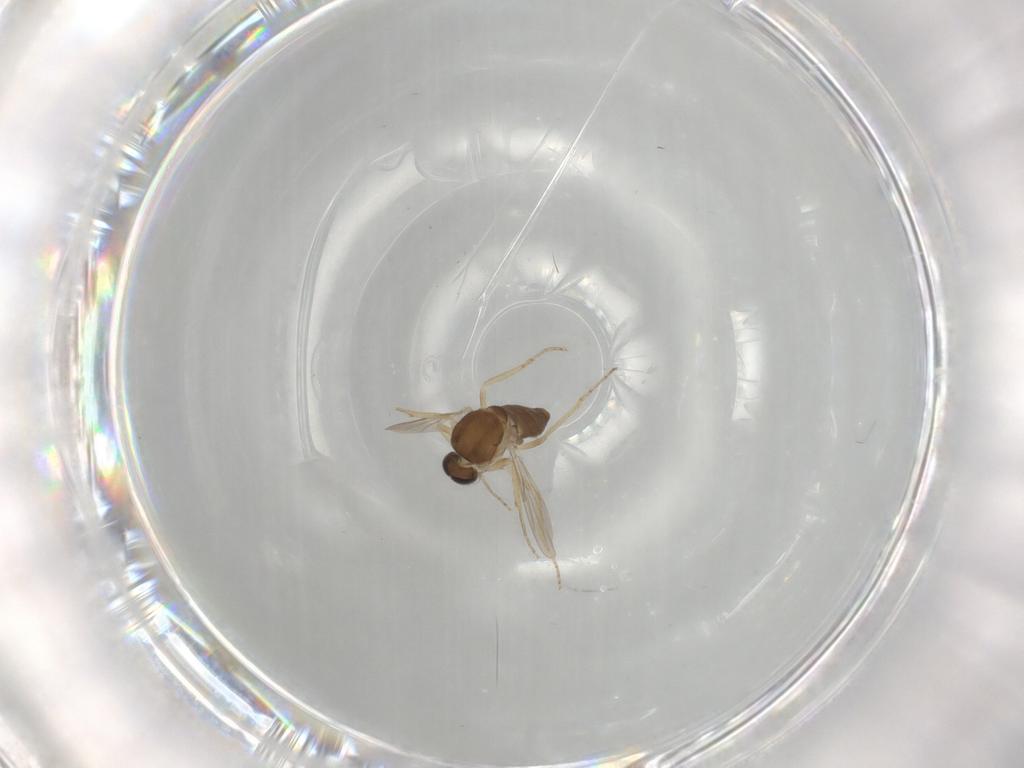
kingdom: Animalia
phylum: Arthropoda
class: Insecta
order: Diptera
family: Ceratopogonidae
